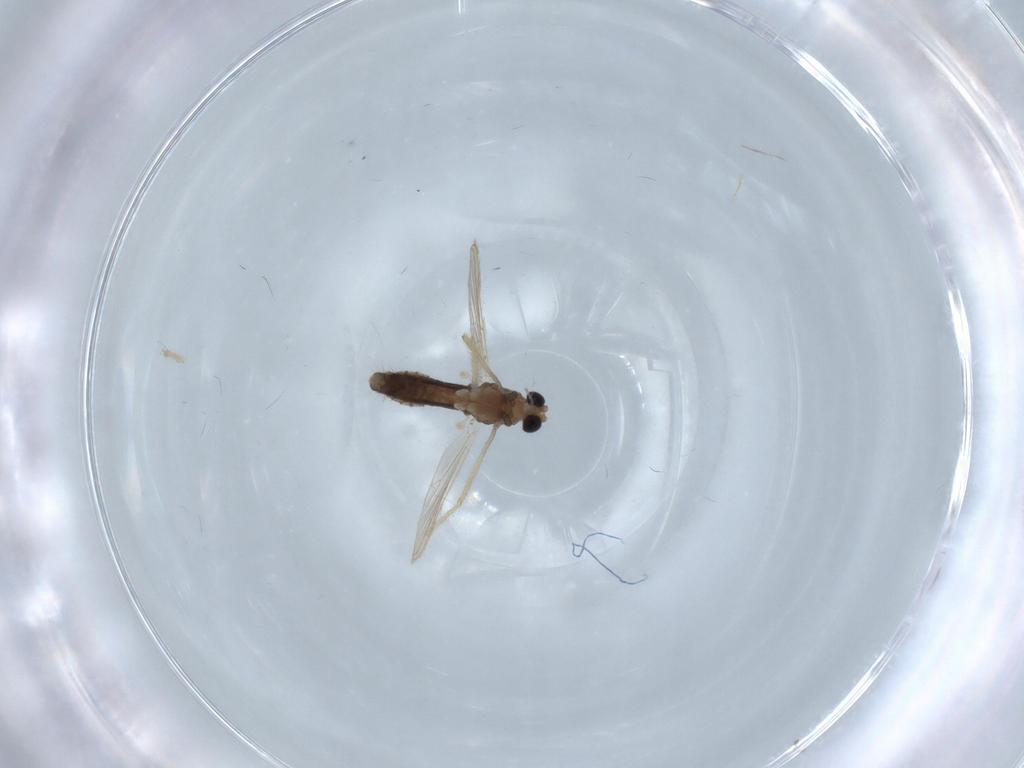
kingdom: Animalia
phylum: Arthropoda
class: Insecta
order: Diptera
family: Chironomidae
